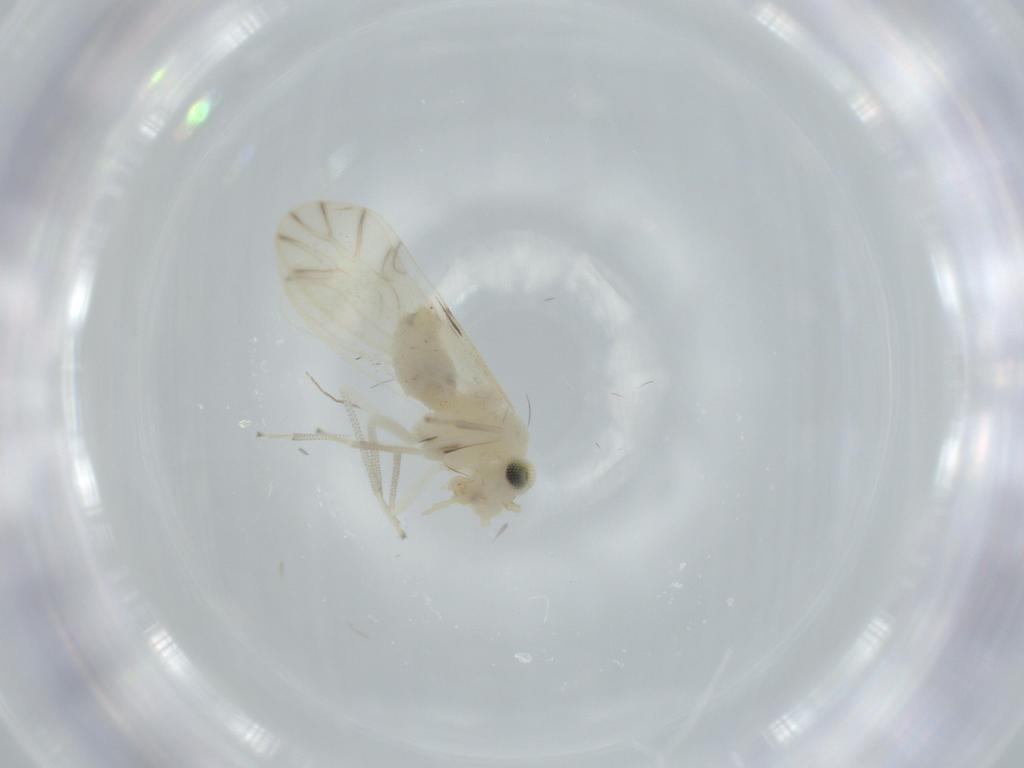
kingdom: Animalia
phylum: Arthropoda
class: Insecta
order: Psocodea
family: Caeciliusidae
